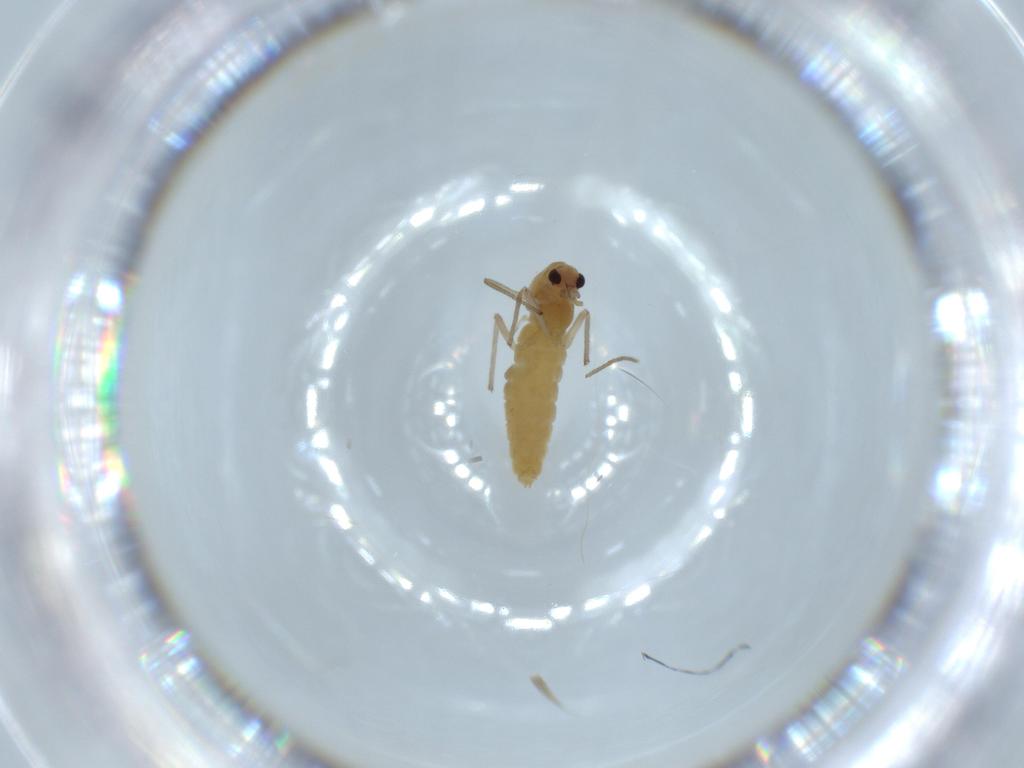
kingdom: Animalia
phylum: Arthropoda
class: Insecta
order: Diptera
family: Chironomidae
